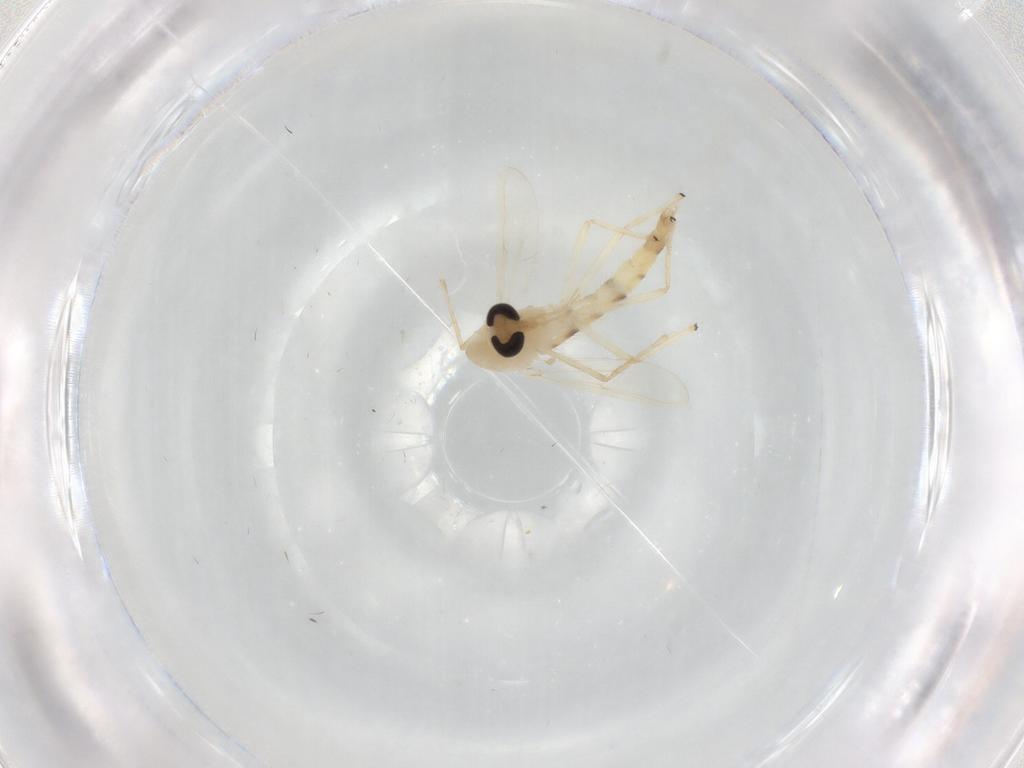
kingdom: Animalia
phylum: Arthropoda
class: Insecta
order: Diptera
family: Chironomidae
